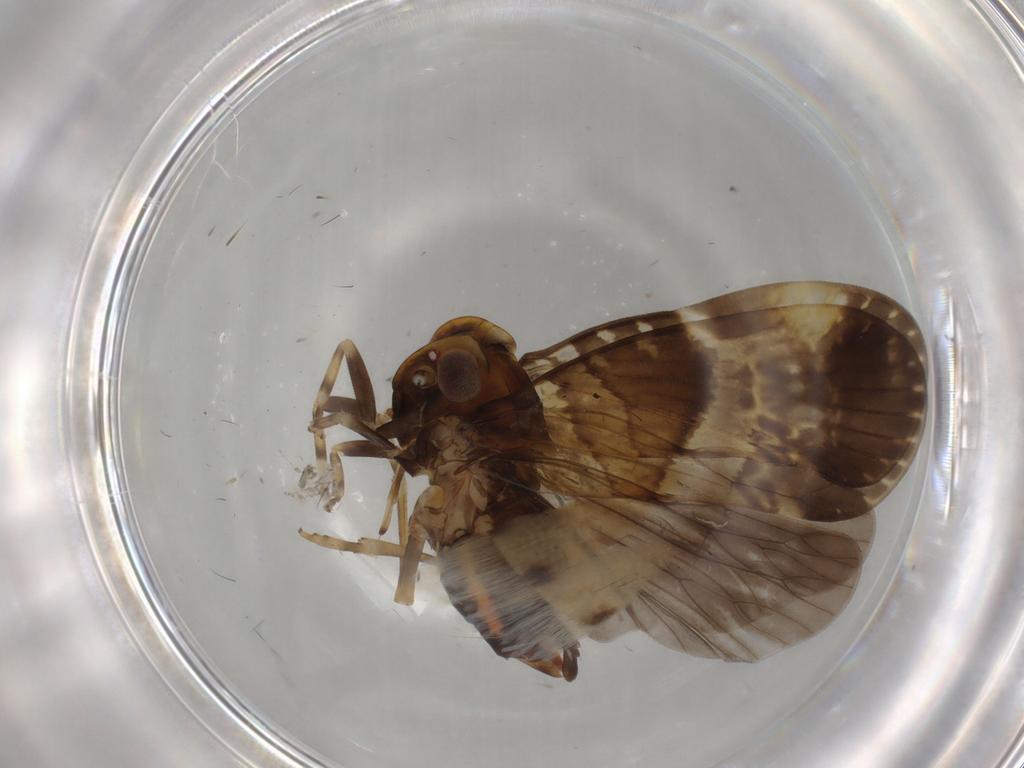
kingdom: Animalia
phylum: Arthropoda
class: Insecta
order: Hemiptera
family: Cixiidae
